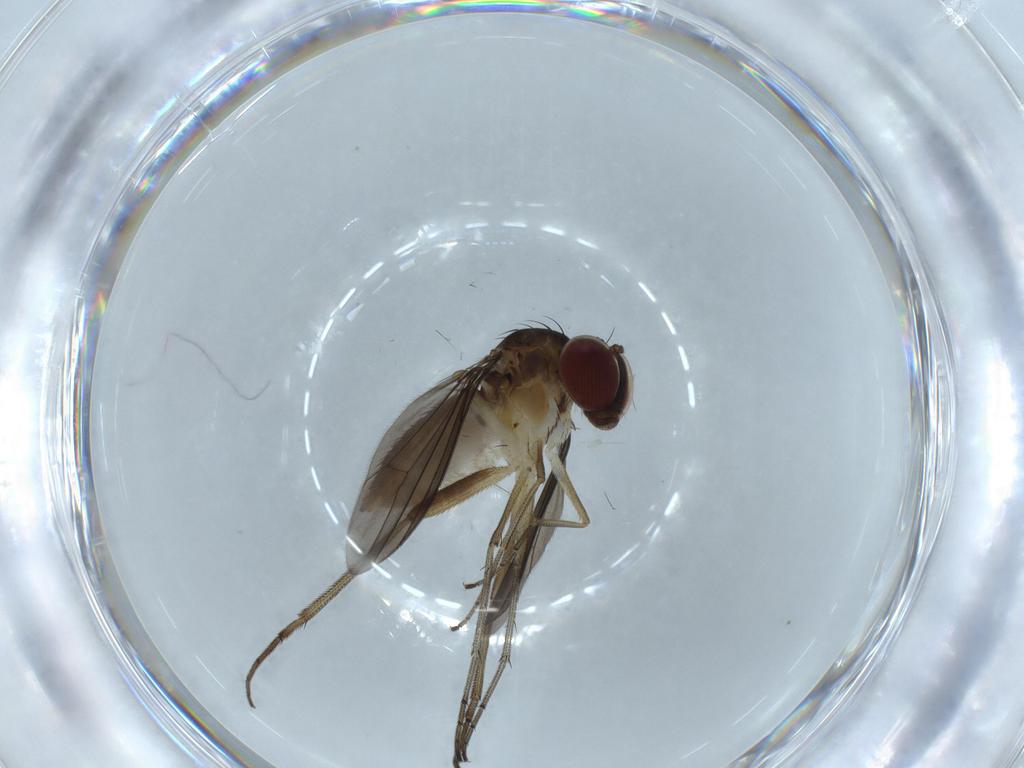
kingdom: Animalia
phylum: Arthropoda
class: Insecta
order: Diptera
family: Dolichopodidae
